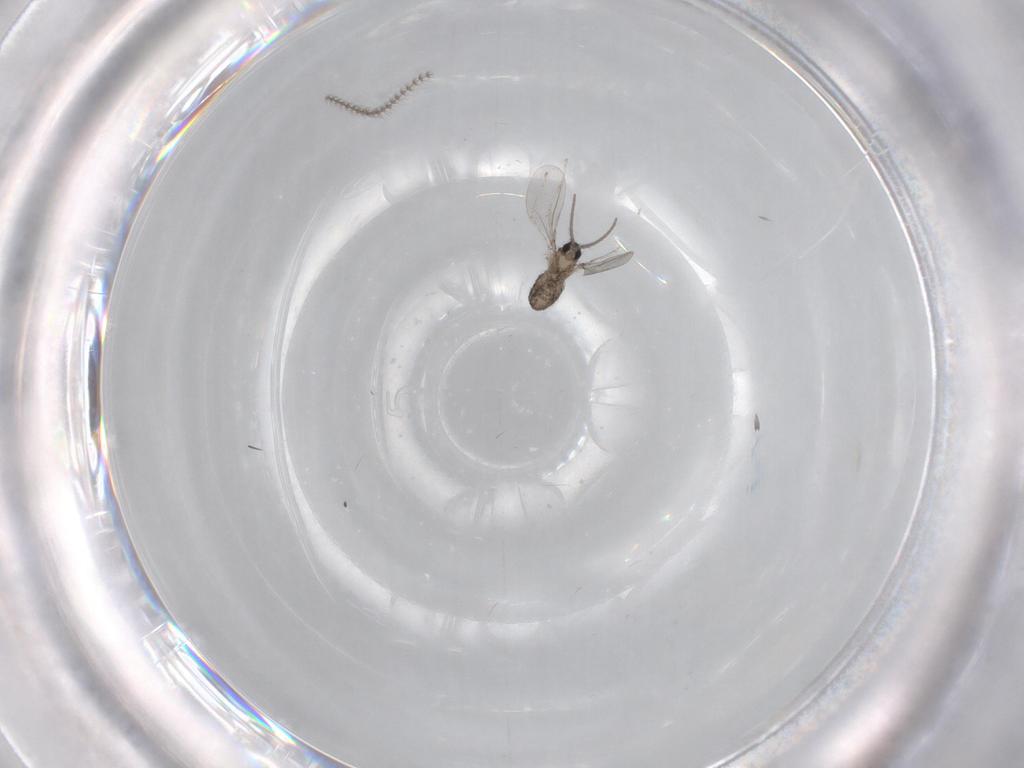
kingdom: Animalia
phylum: Arthropoda
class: Insecta
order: Diptera
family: Cecidomyiidae
